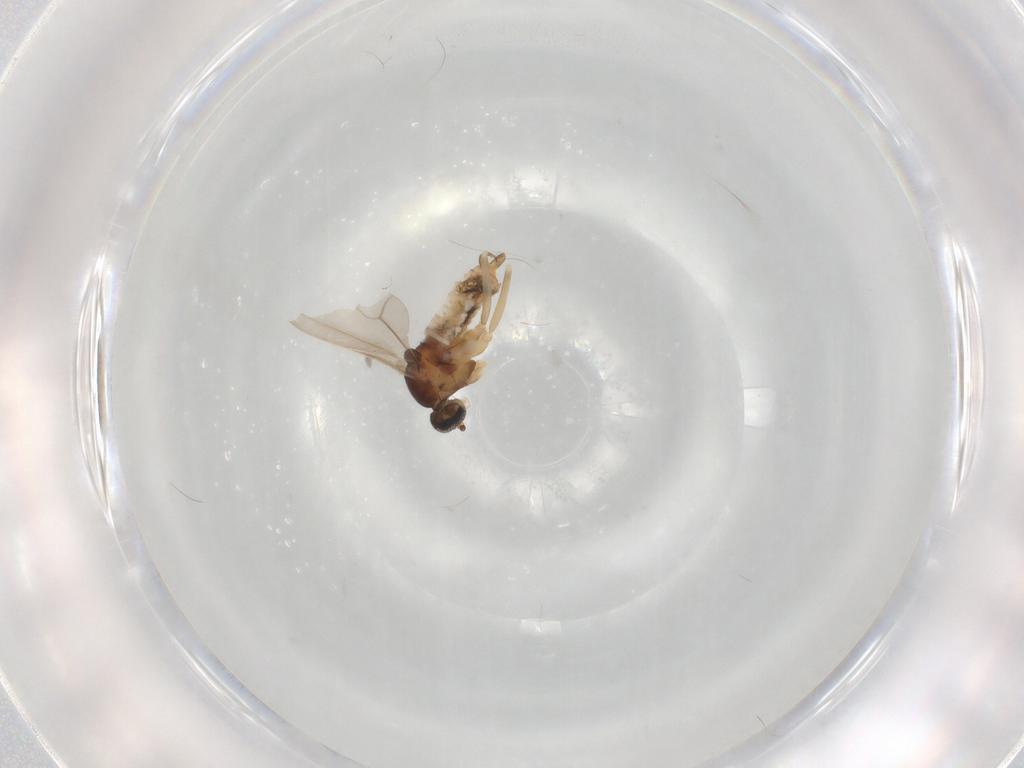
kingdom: Animalia
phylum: Arthropoda
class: Insecta
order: Diptera
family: Cecidomyiidae
